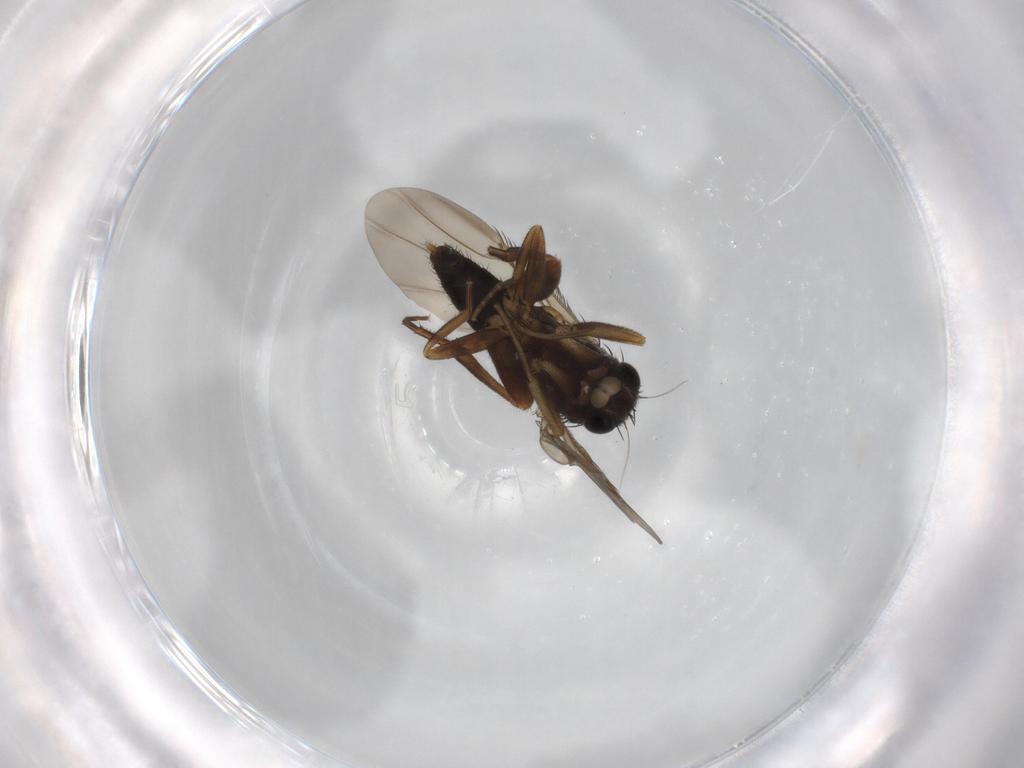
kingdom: Animalia
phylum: Arthropoda
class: Insecta
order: Diptera
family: Phoridae
